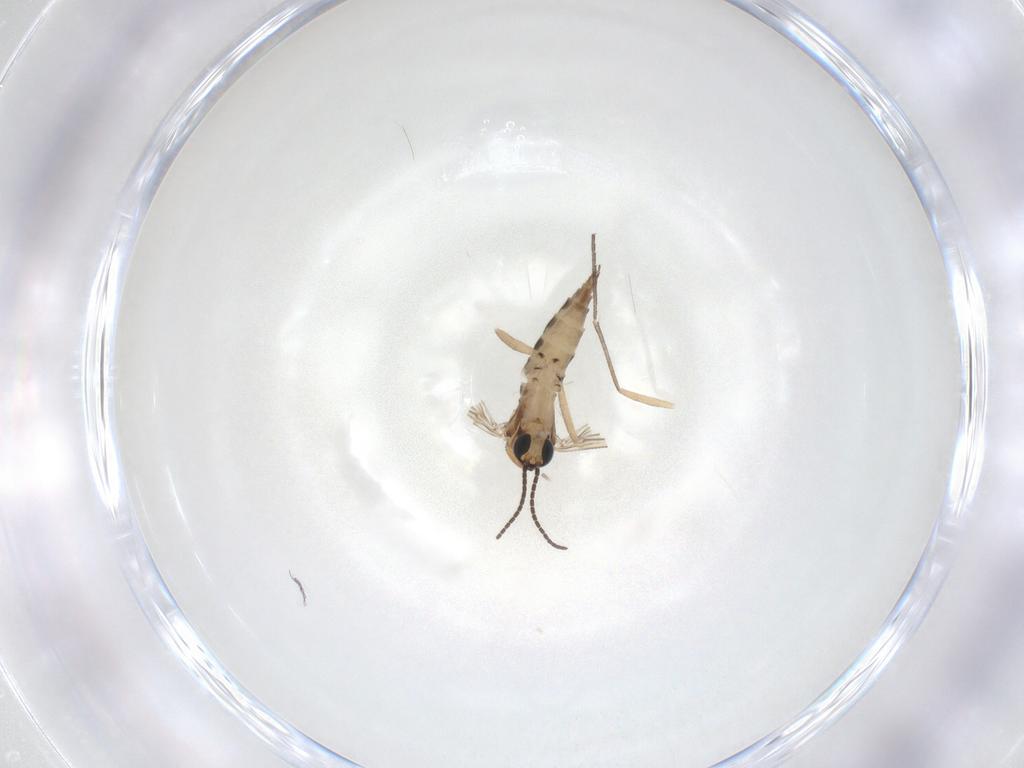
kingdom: Animalia
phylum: Arthropoda
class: Insecta
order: Diptera
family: Sciaridae
